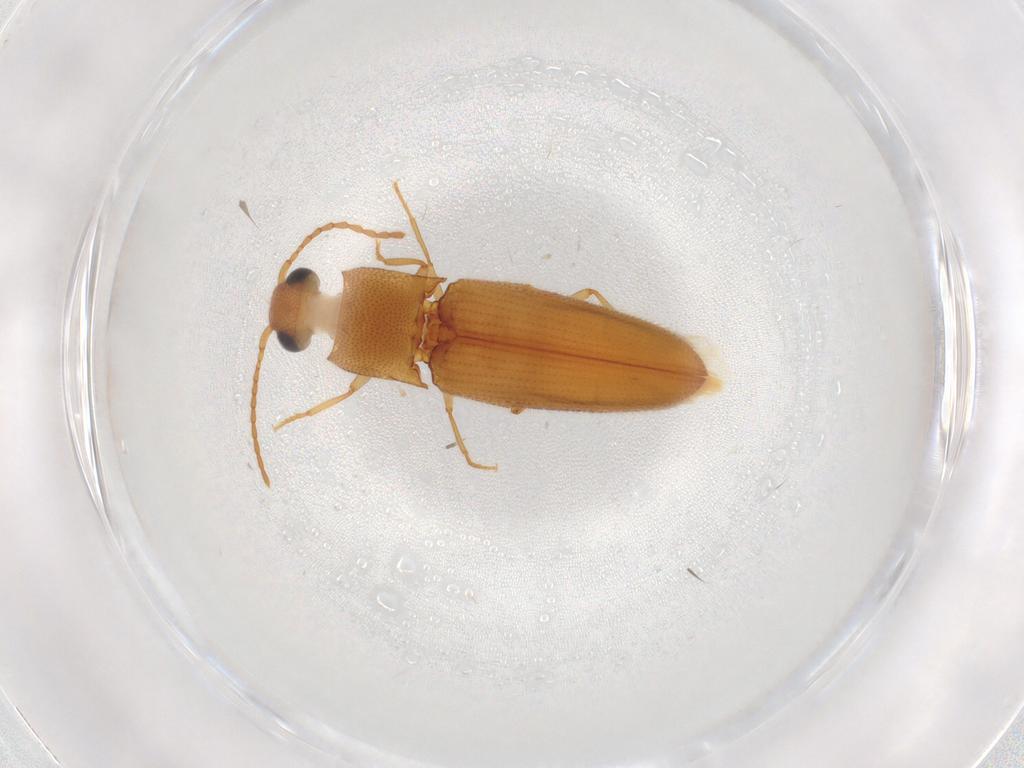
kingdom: Animalia
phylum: Arthropoda
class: Insecta
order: Coleoptera
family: Elateridae
